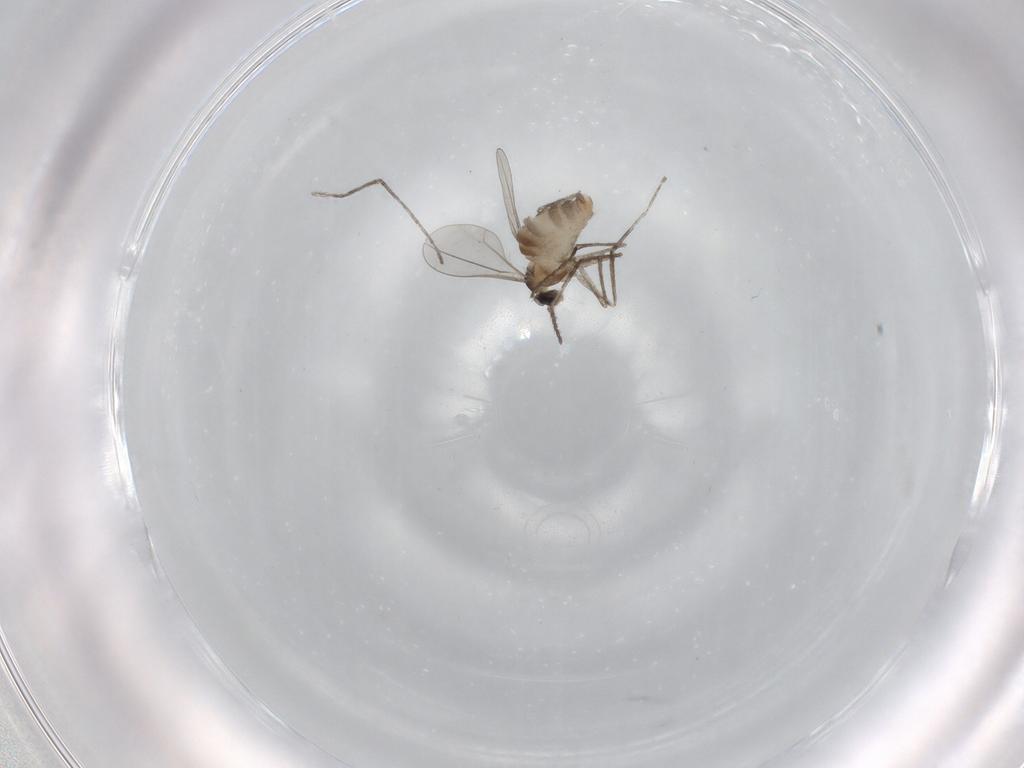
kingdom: Animalia
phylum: Arthropoda
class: Insecta
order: Diptera
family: Cecidomyiidae
